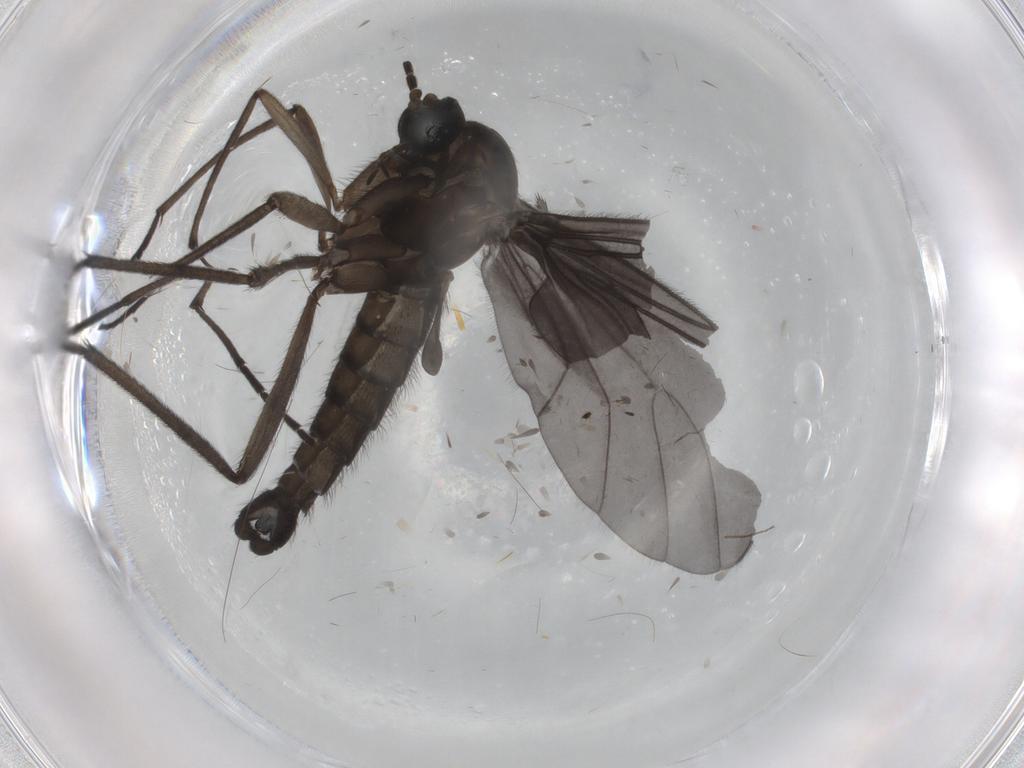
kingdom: Animalia
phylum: Arthropoda
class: Insecta
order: Diptera
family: Sciaridae
